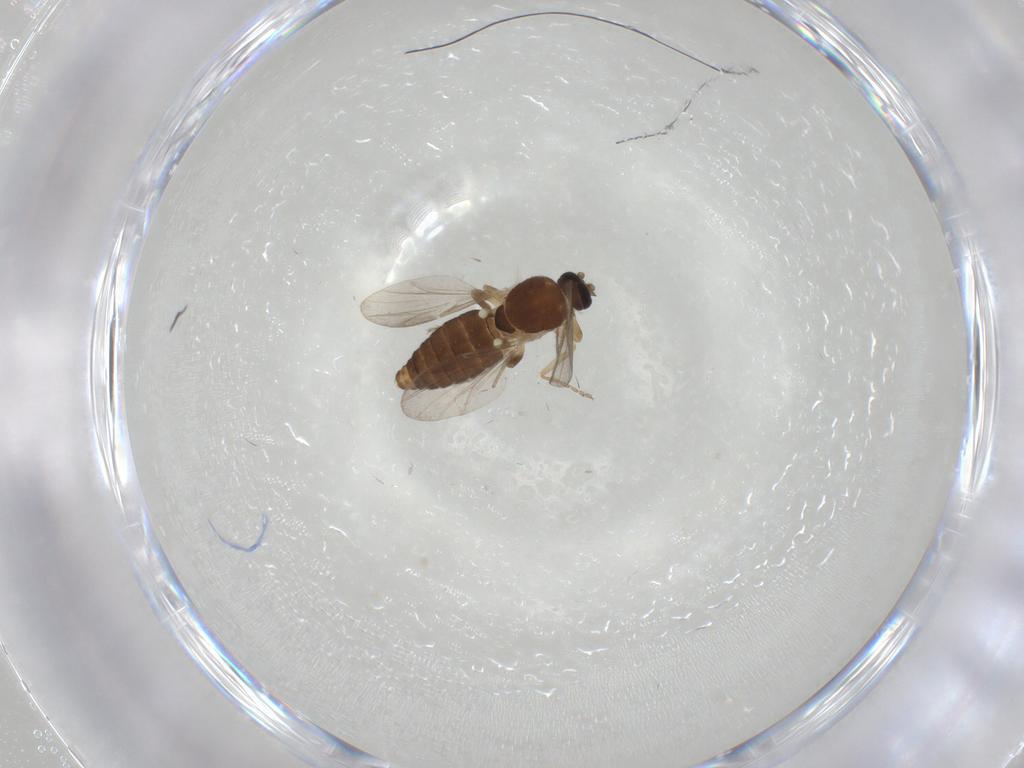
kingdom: Animalia
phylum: Arthropoda
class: Insecta
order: Diptera
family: Ceratopogonidae
